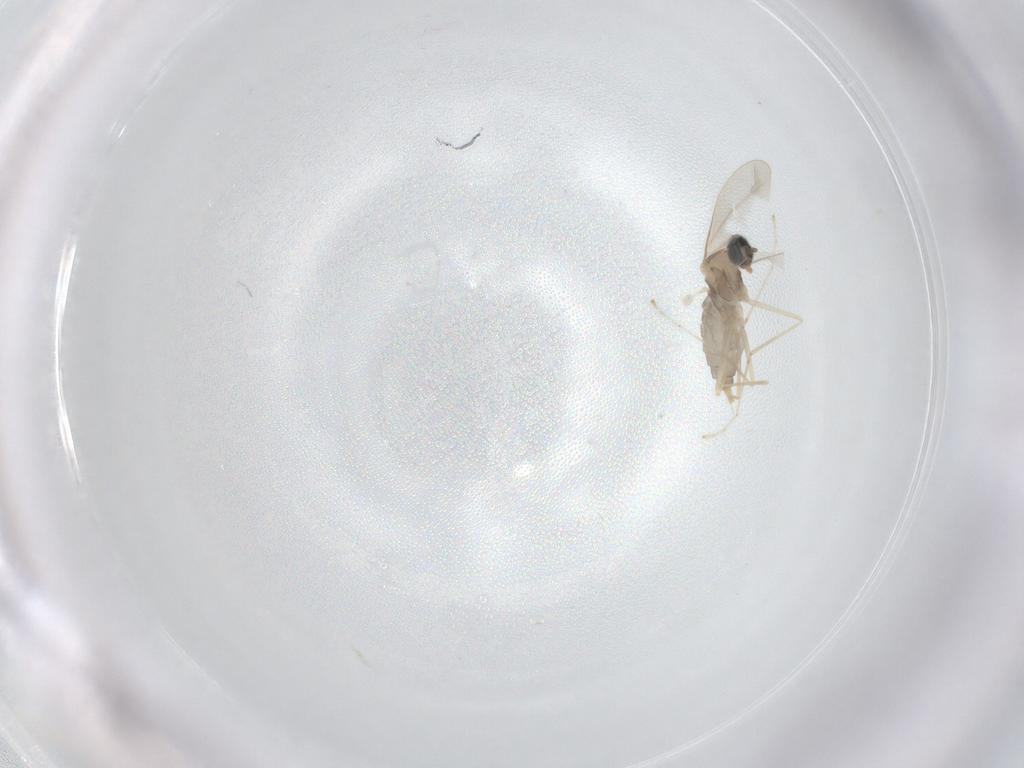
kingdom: Animalia
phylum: Arthropoda
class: Insecta
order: Diptera
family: Cecidomyiidae
